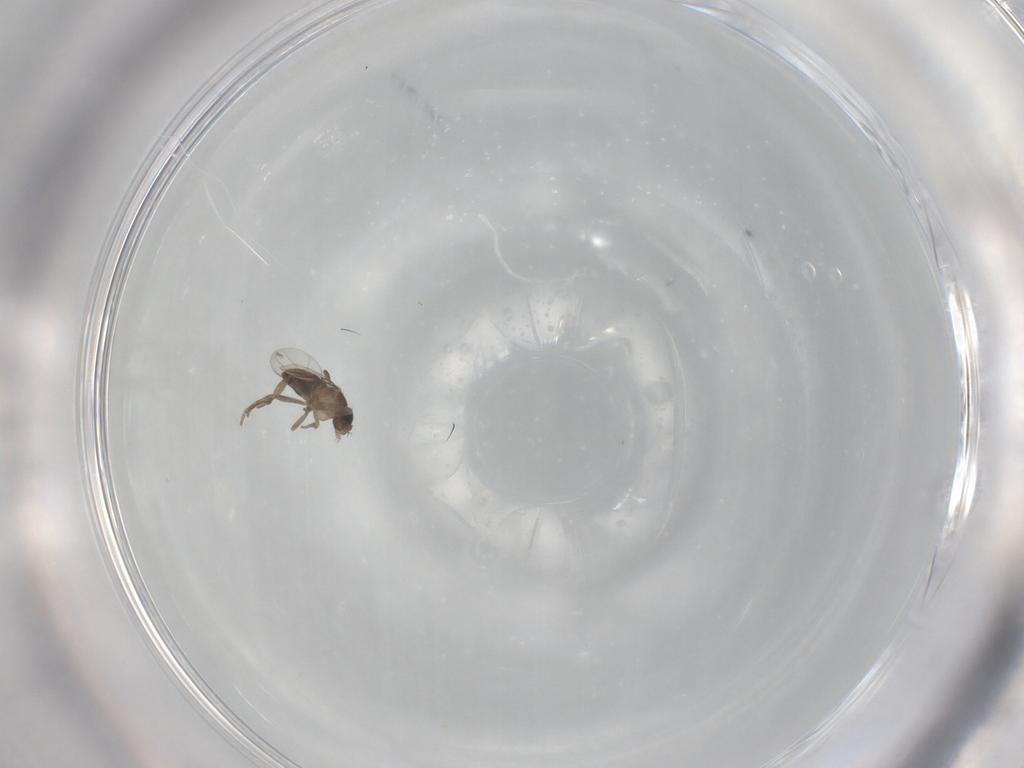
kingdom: Animalia
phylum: Arthropoda
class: Insecta
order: Diptera
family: Phoridae
